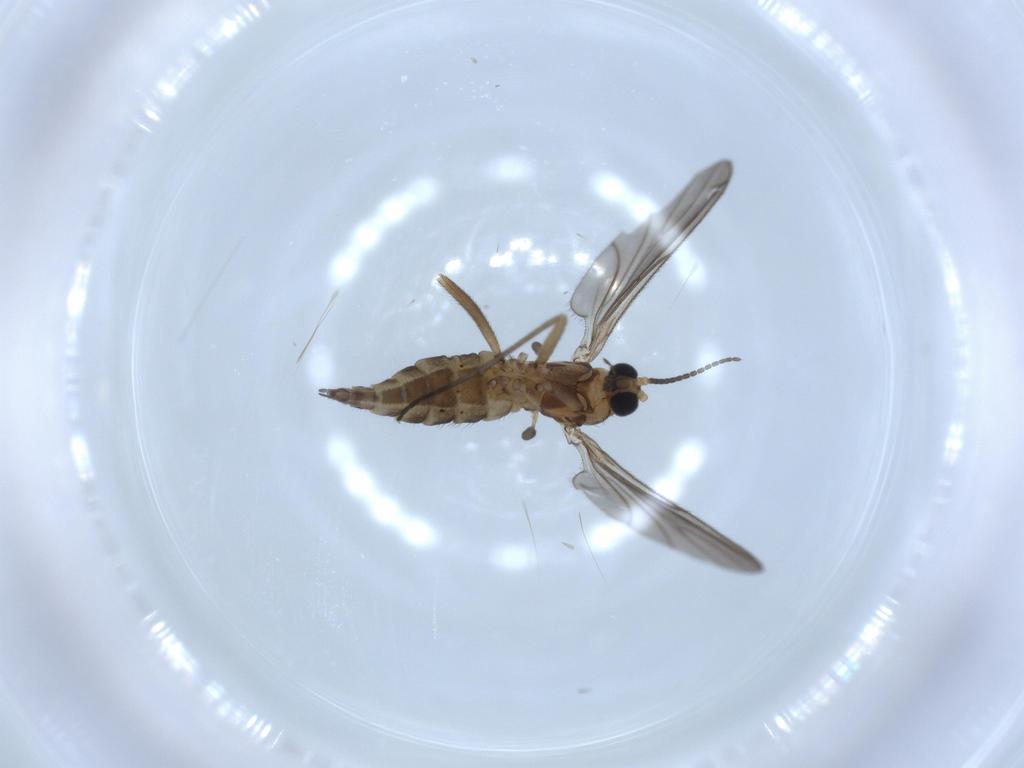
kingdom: Animalia
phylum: Arthropoda
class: Insecta
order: Diptera
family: Sciaridae
